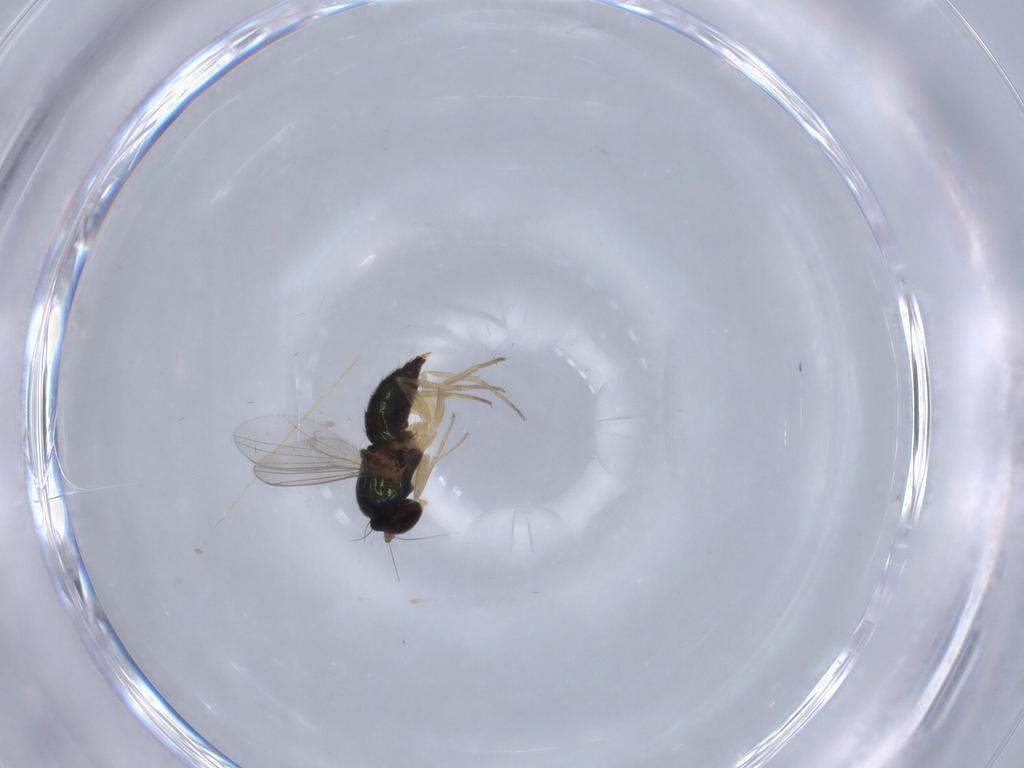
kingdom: Animalia
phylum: Arthropoda
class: Insecta
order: Diptera
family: Dolichopodidae
